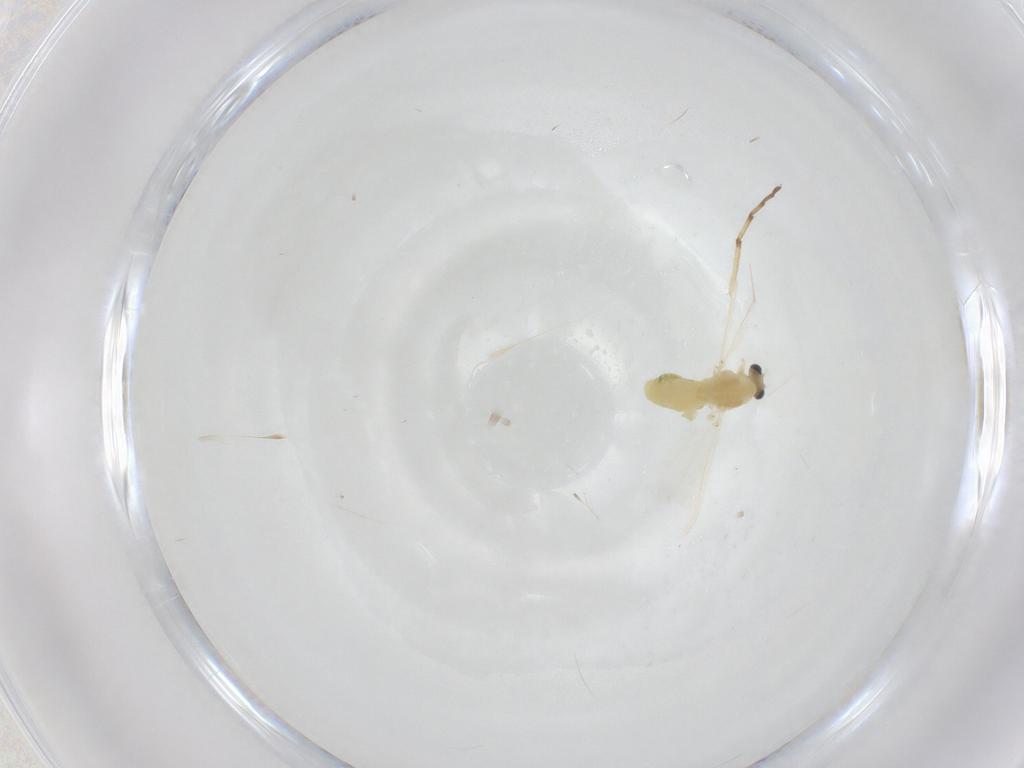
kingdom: Animalia
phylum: Arthropoda
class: Insecta
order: Diptera
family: Chironomidae
